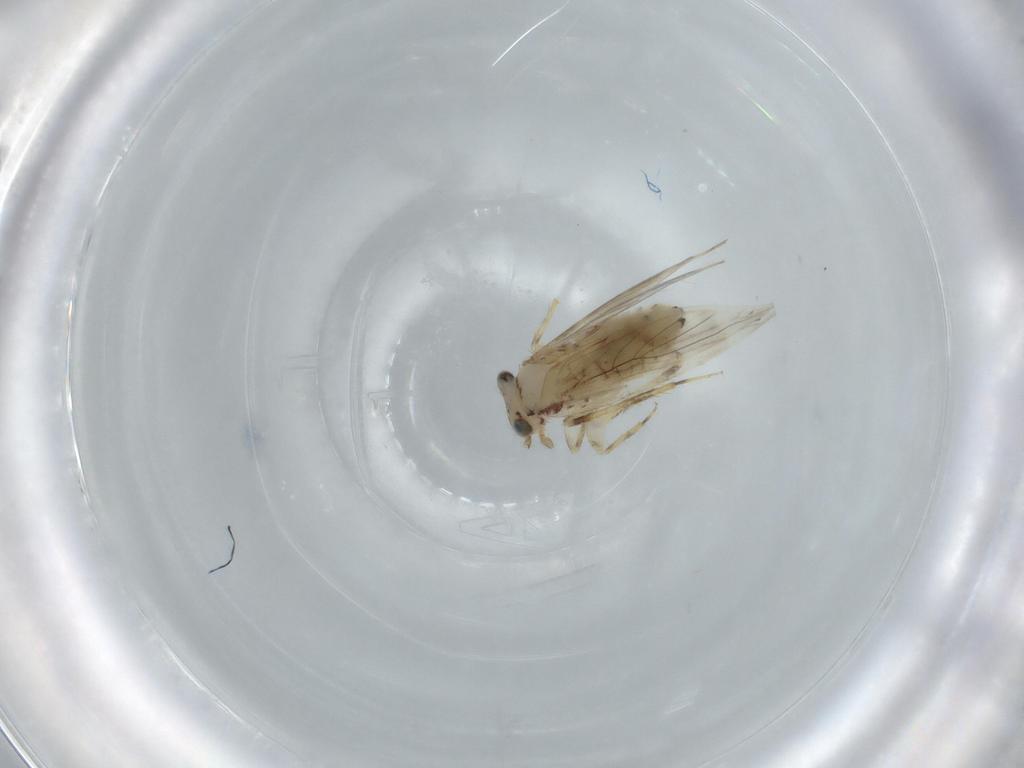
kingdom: Animalia
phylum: Arthropoda
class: Insecta
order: Psocodea
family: Lepidopsocidae
